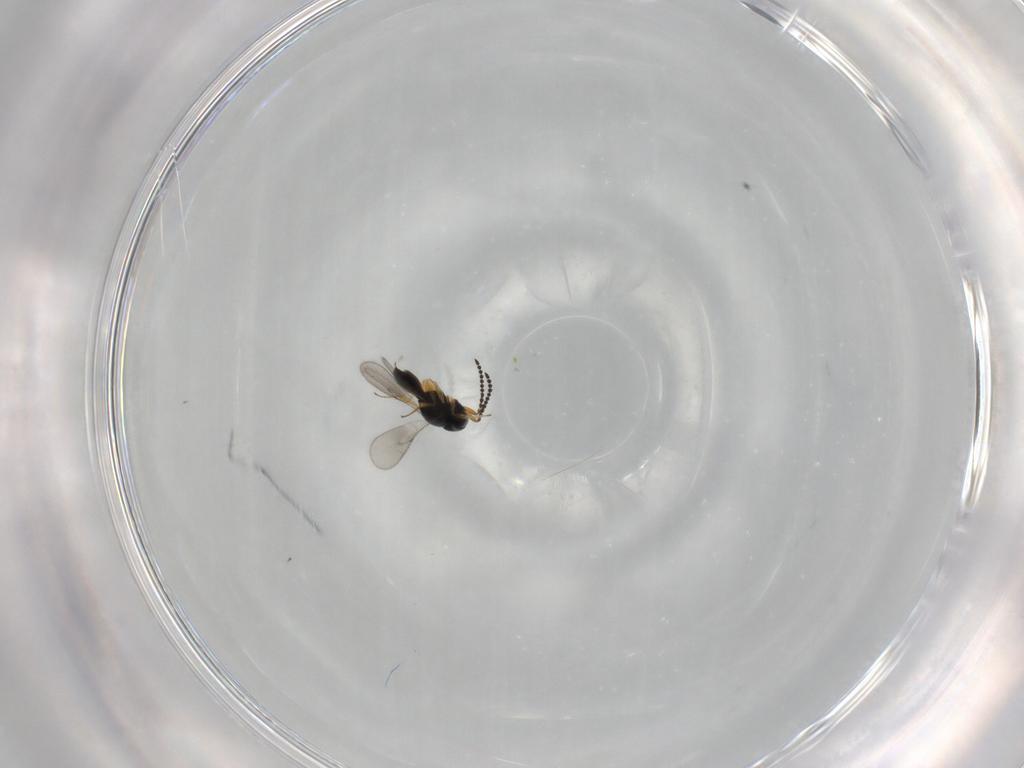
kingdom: Animalia
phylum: Arthropoda
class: Insecta
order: Hymenoptera
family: Scelionidae
